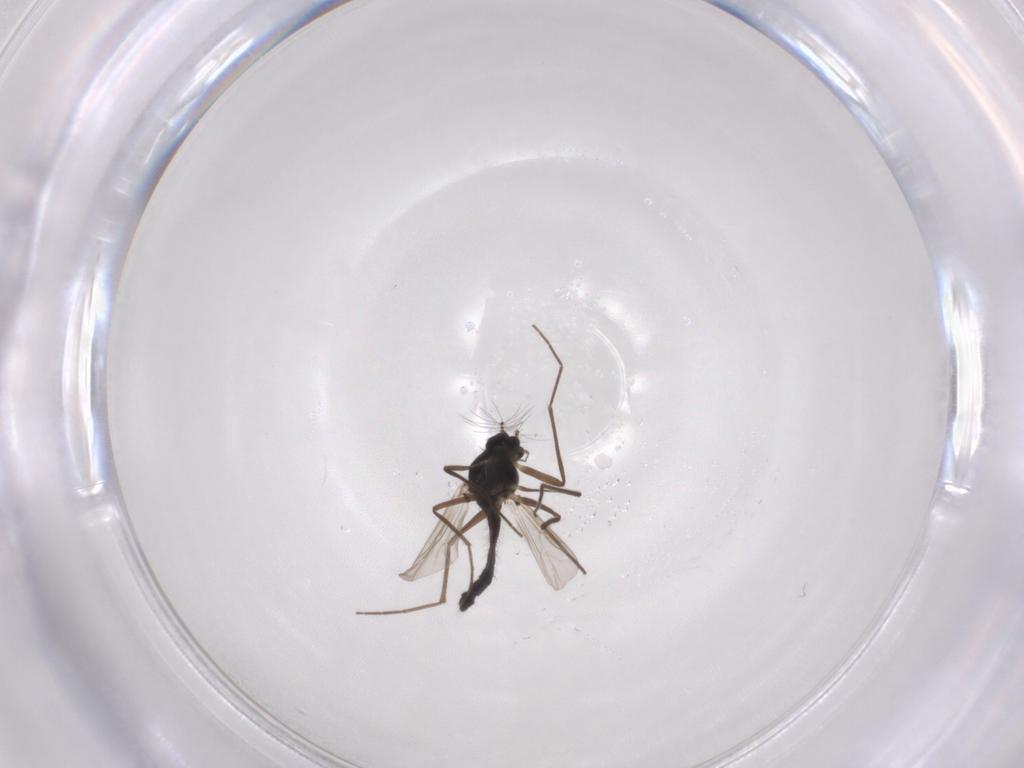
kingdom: Animalia
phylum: Arthropoda
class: Insecta
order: Diptera
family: Chironomidae
